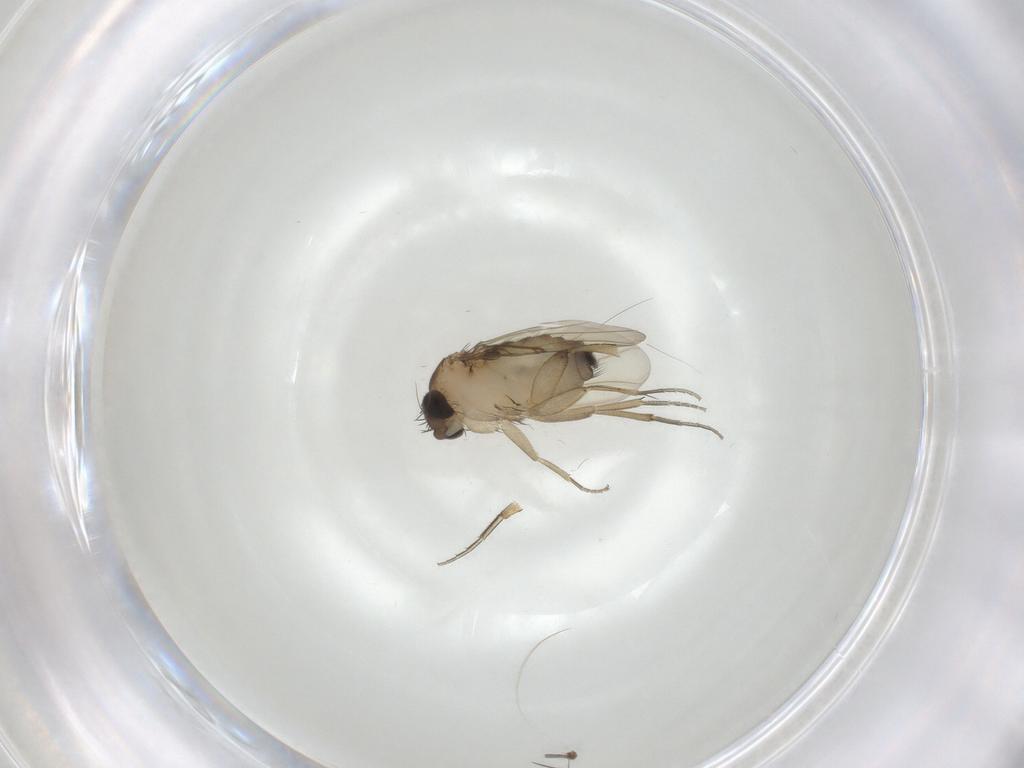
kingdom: Animalia
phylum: Arthropoda
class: Insecta
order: Diptera
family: Phoridae
